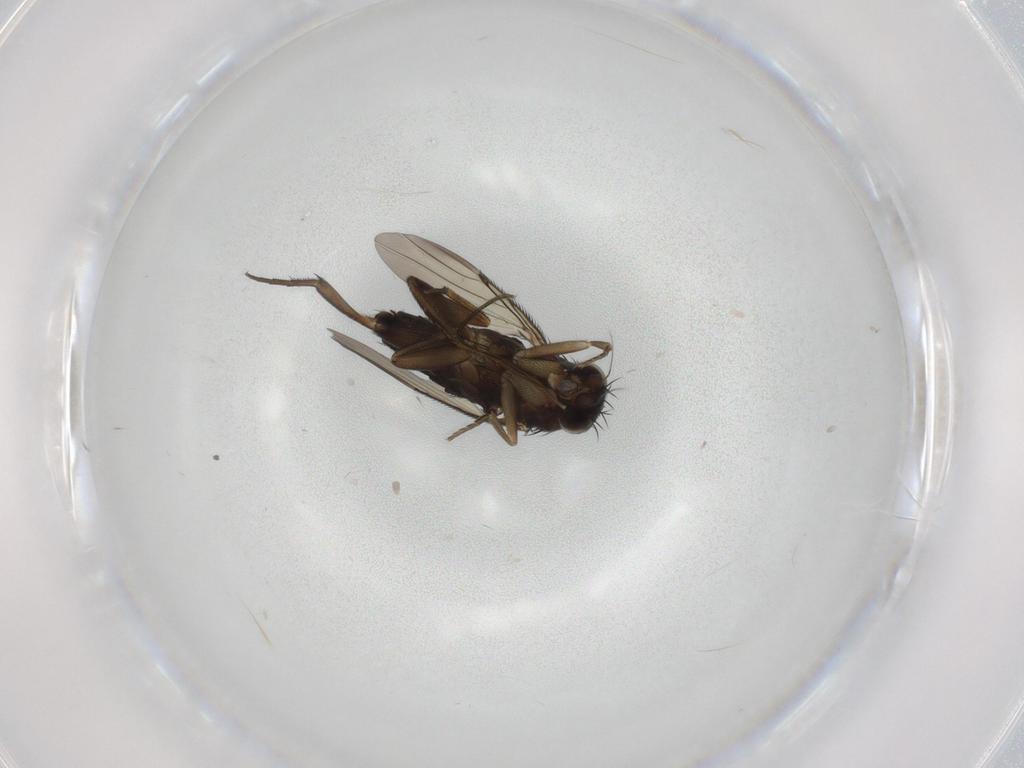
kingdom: Animalia
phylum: Arthropoda
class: Insecta
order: Diptera
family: Phoridae
